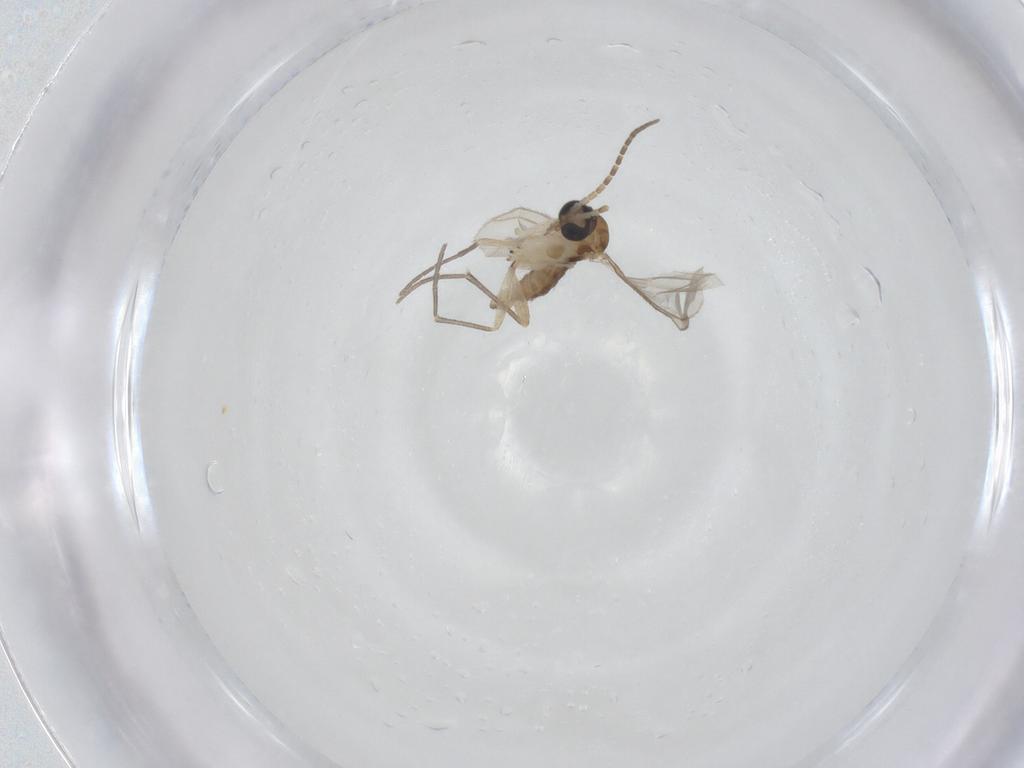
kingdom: Animalia
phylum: Arthropoda
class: Insecta
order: Diptera
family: Sciaridae
